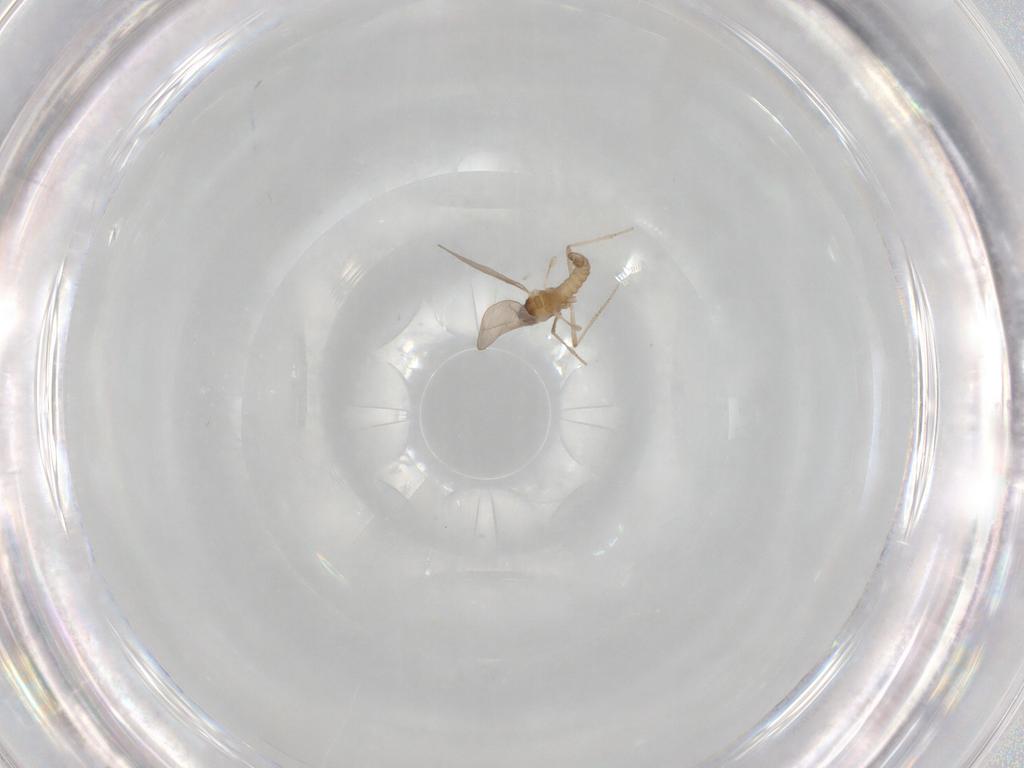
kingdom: Animalia
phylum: Arthropoda
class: Insecta
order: Diptera
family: Cecidomyiidae
